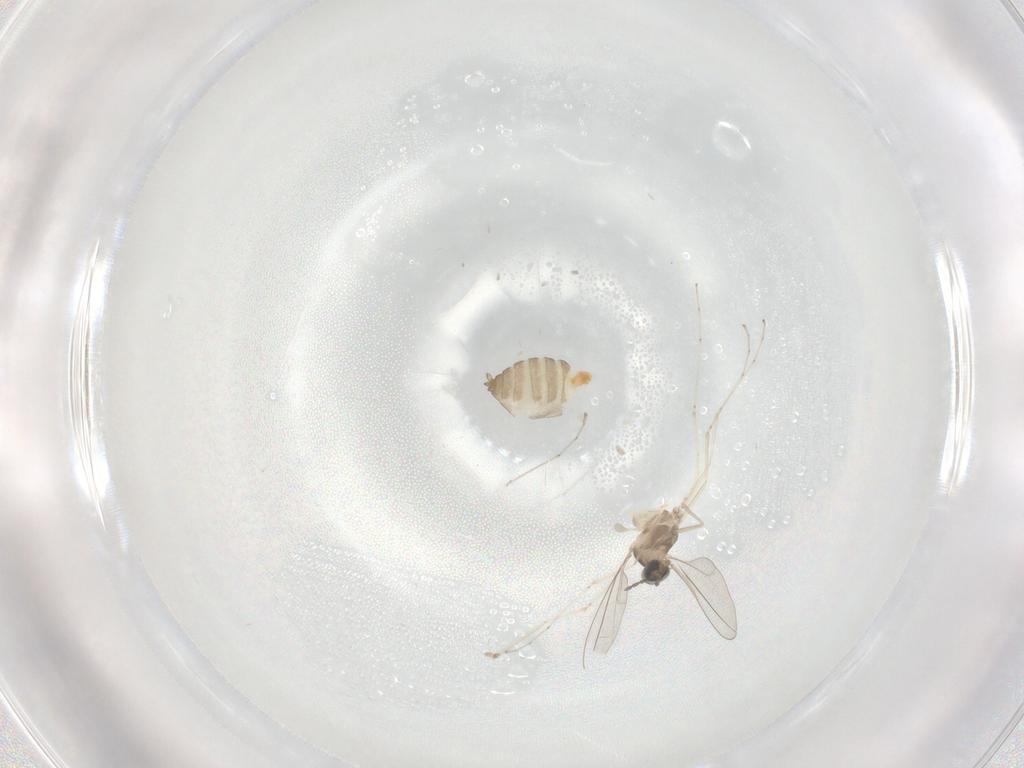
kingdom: Animalia
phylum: Arthropoda
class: Insecta
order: Diptera
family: Cecidomyiidae
